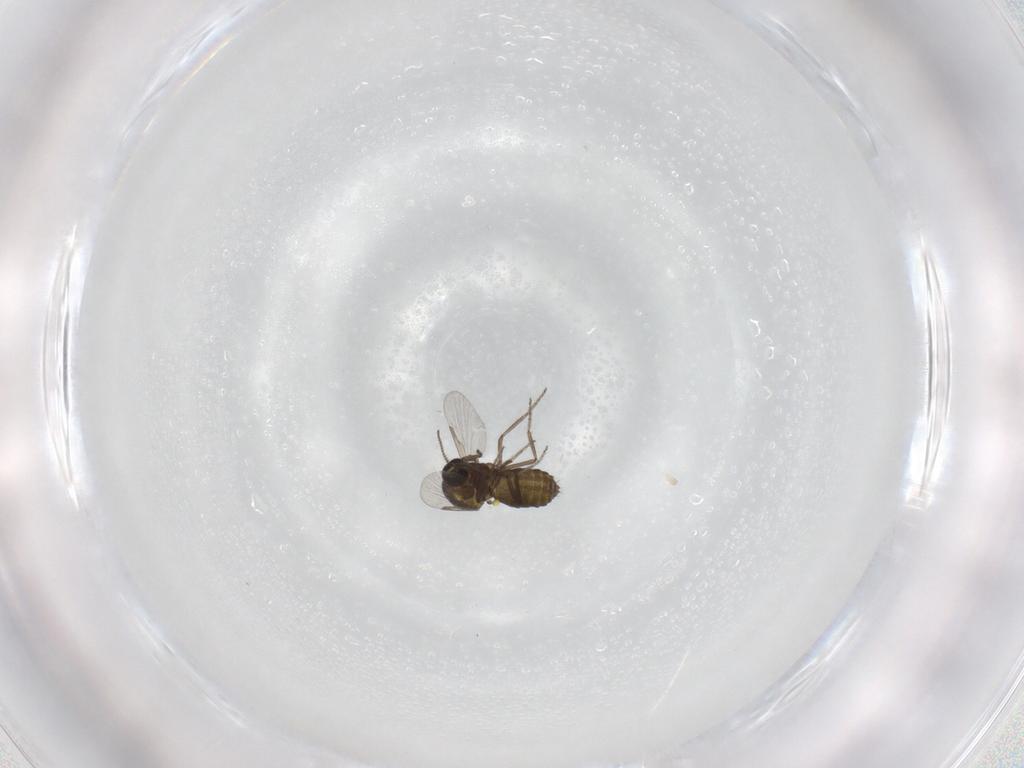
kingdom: Animalia
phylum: Arthropoda
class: Insecta
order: Diptera
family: Ceratopogonidae
